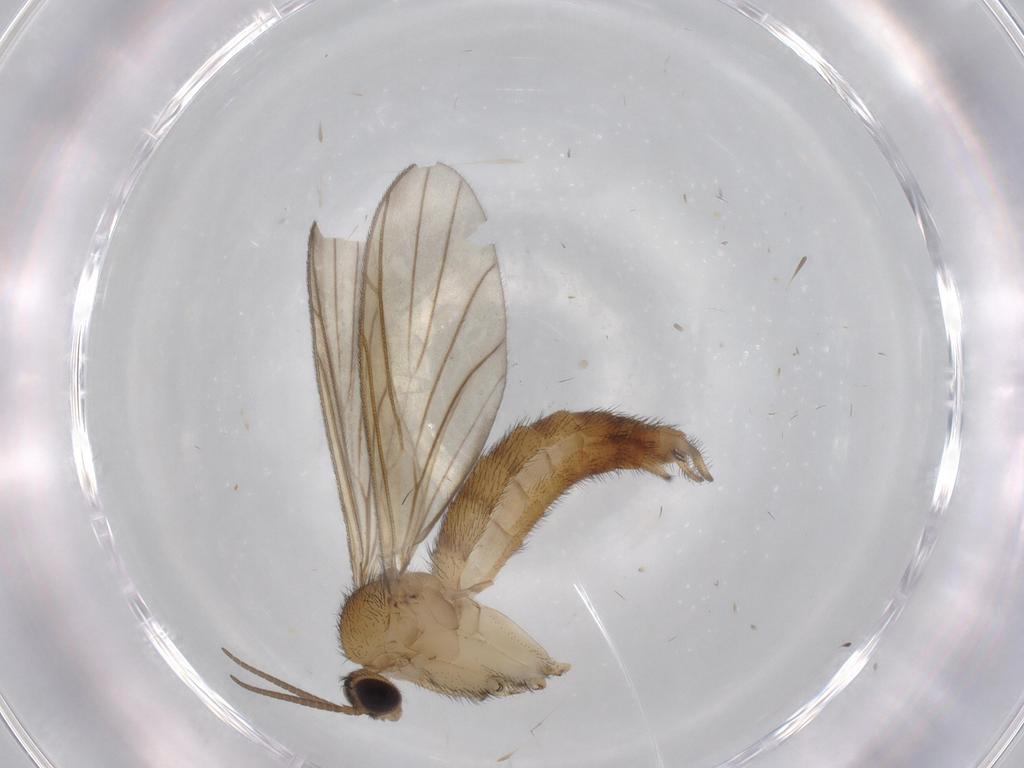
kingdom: Animalia
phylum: Arthropoda
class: Insecta
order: Diptera
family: Keroplatidae
